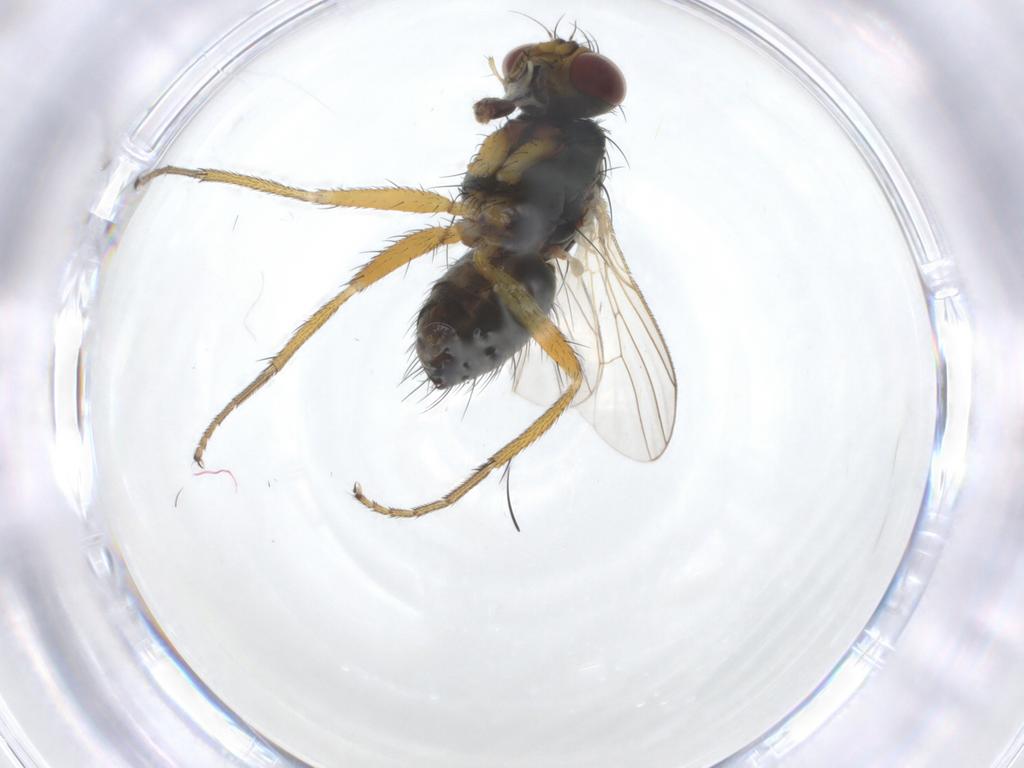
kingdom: Animalia
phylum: Arthropoda
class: Insecta
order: Diptera
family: Muscidae
